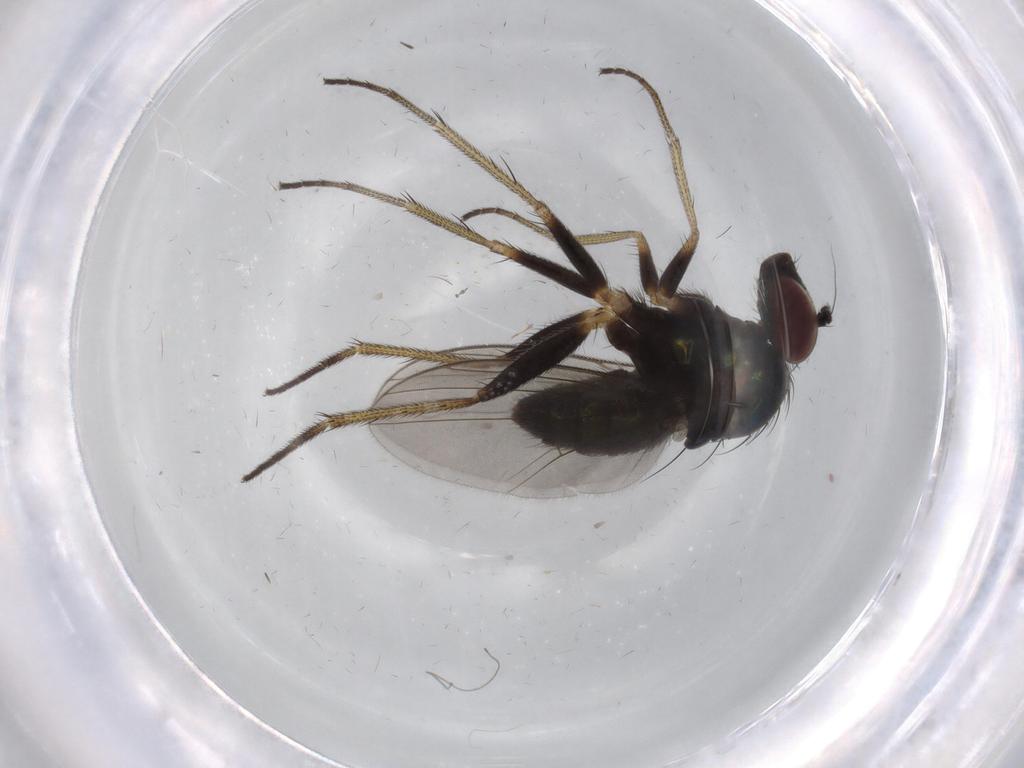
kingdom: Animalia
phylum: Arthropoda
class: Insecta
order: Diptera
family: Dolichopodidae
